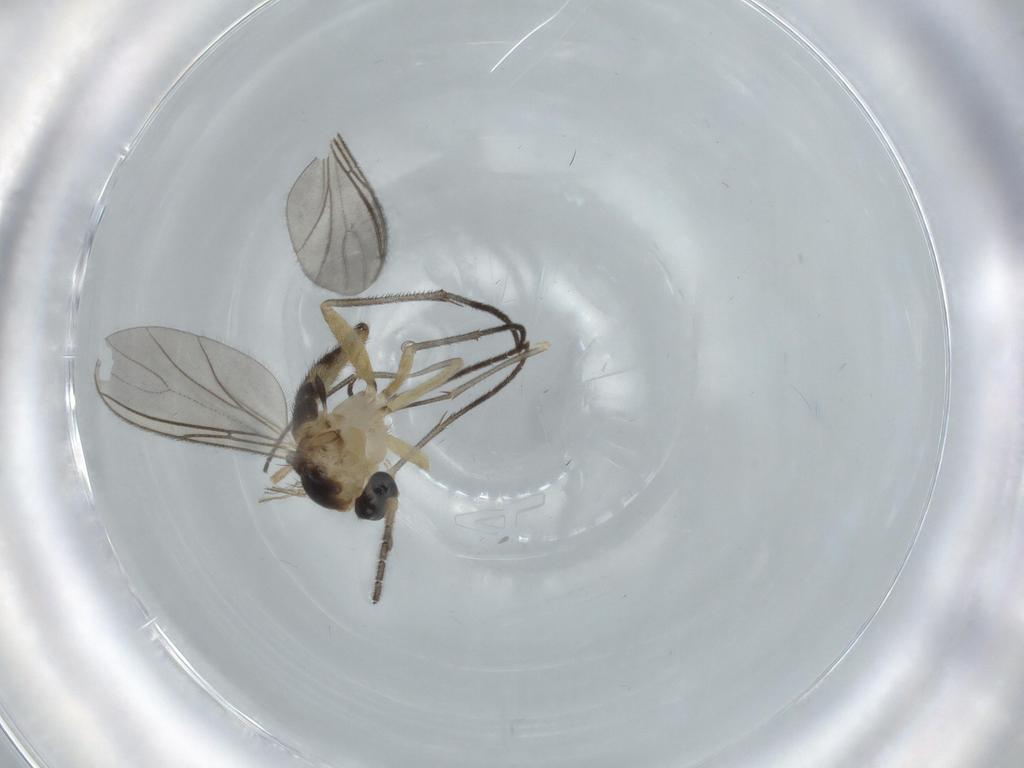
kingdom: Animalia
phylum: Arthropoda
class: Insecta
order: Diptera
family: Sciaridae
